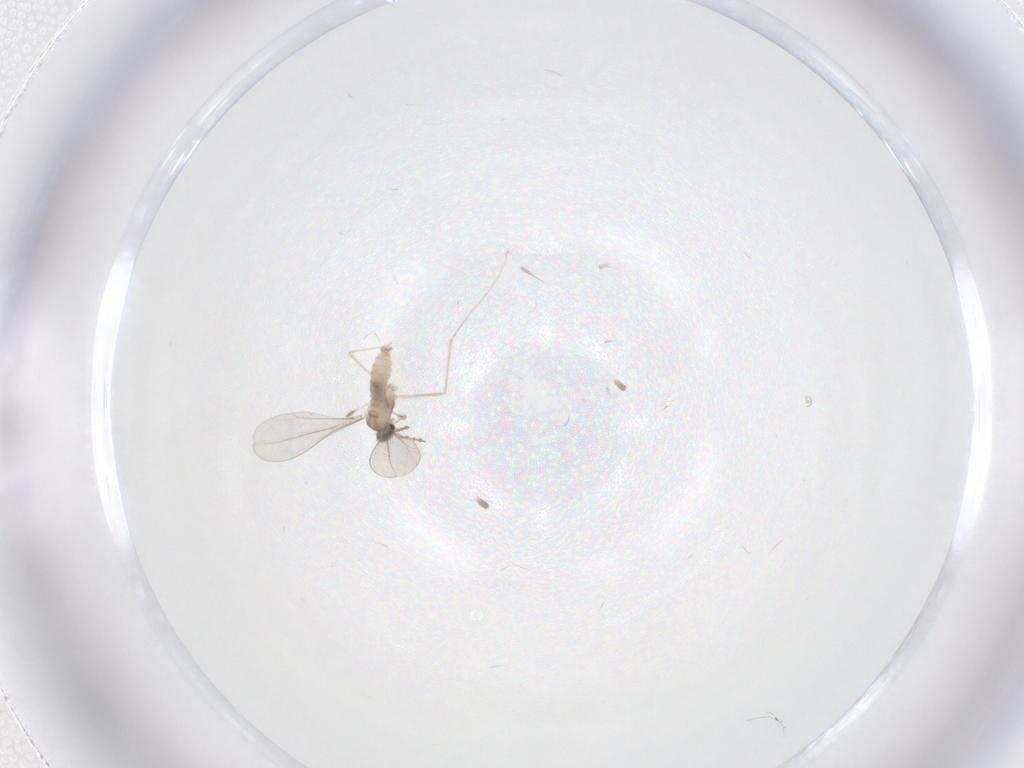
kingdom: Animalia
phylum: Arthropoda
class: Insecta
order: Diptera
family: Cecidomyiidae
